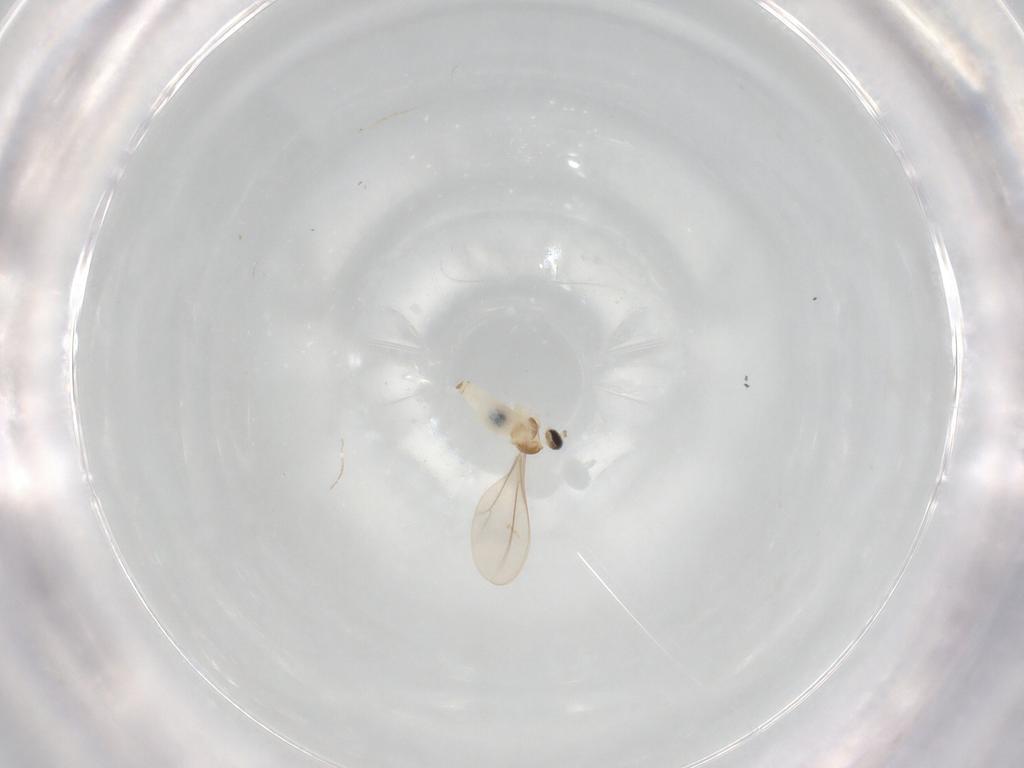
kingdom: Animalia
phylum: Arthropoda
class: Insecta
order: Diptera
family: Cecidomyiidae
